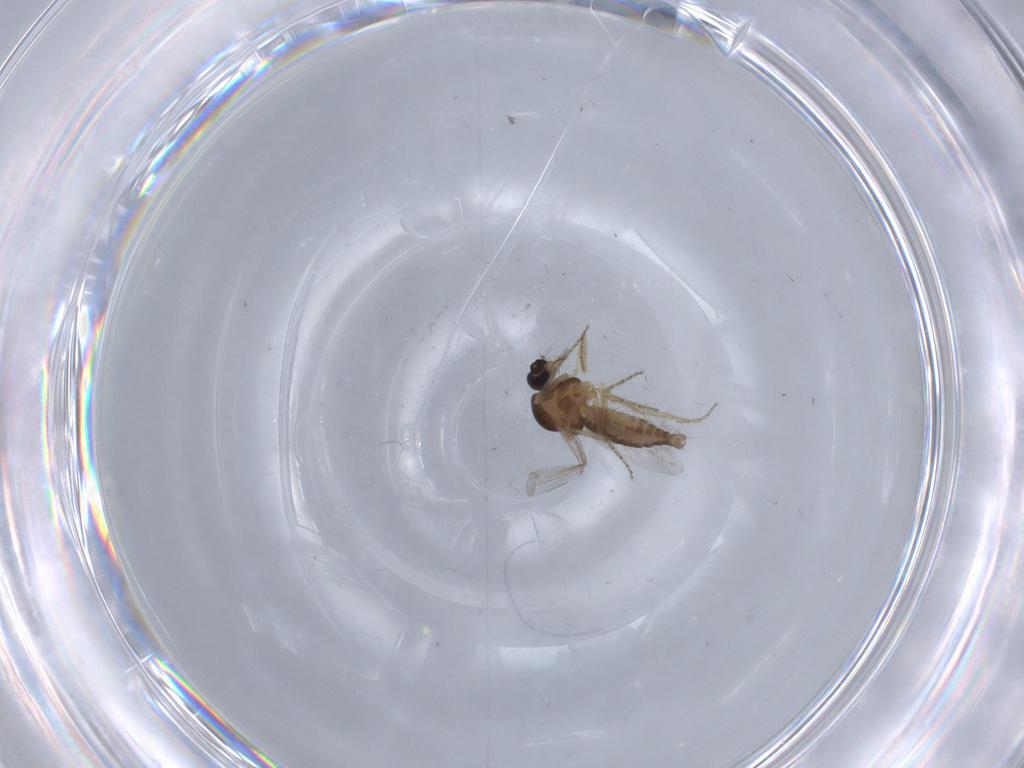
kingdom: Animalia
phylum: Arthropoda
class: Insecta
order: Diptera
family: Ceratopogonidae
